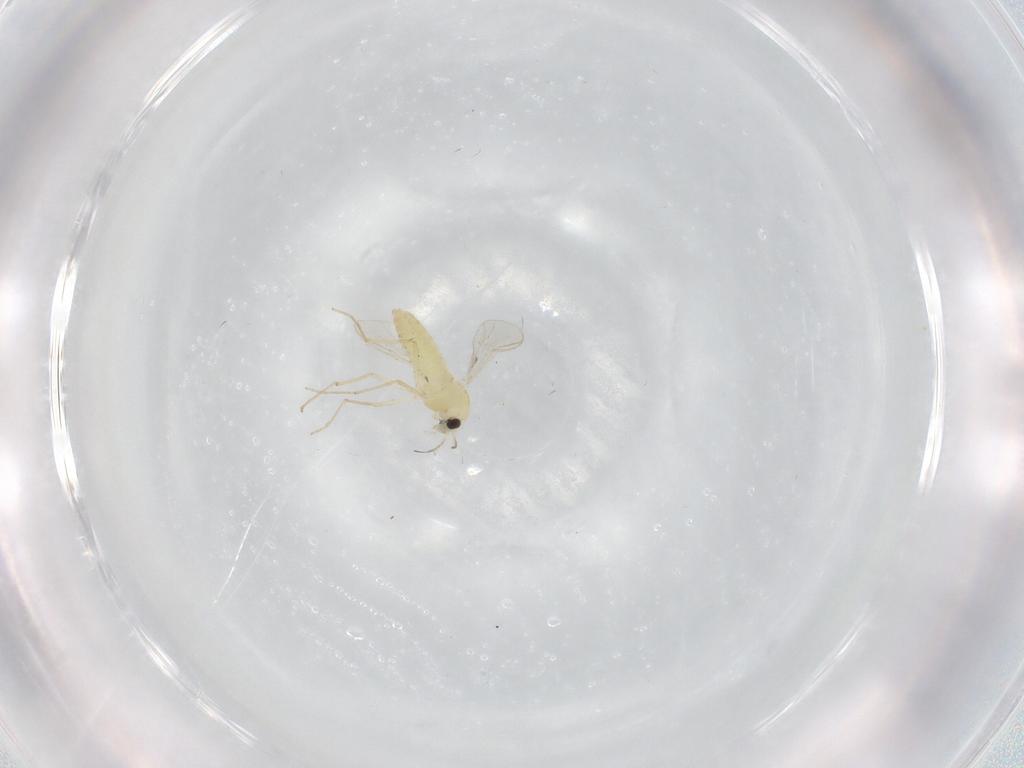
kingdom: Animalia
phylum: Arthropoda
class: Insecta
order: Diptera
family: Chironomidae
